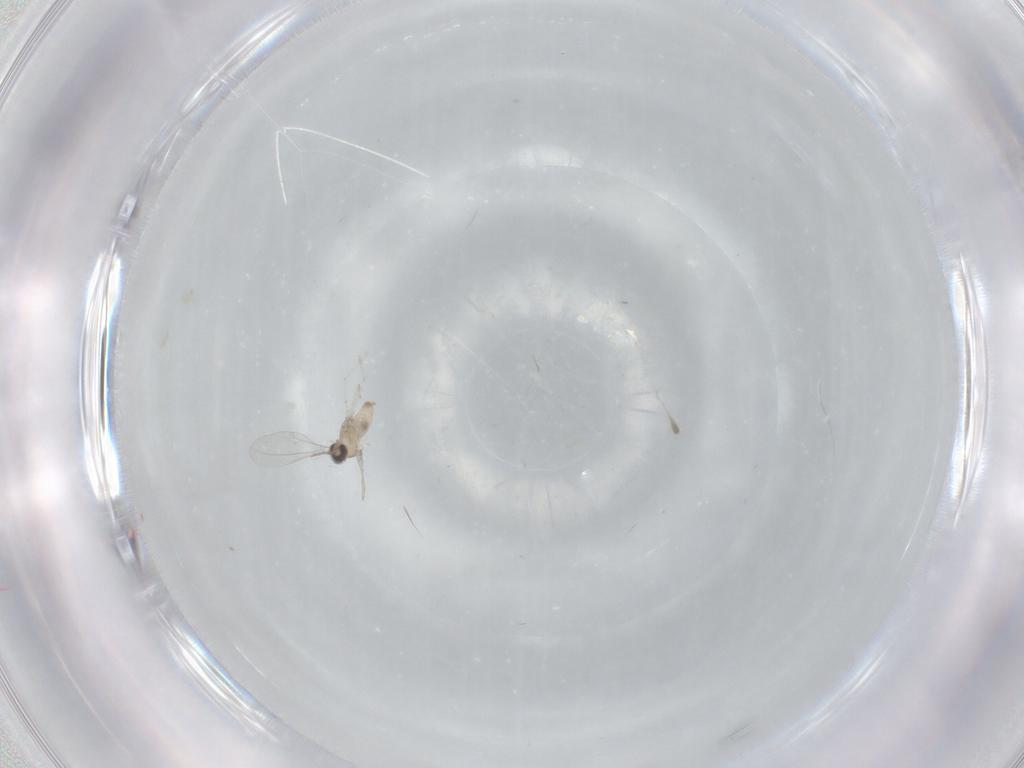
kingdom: Animalia
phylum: Arthropoda
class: Insecta
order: Diptera
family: Cecidomyiidae
